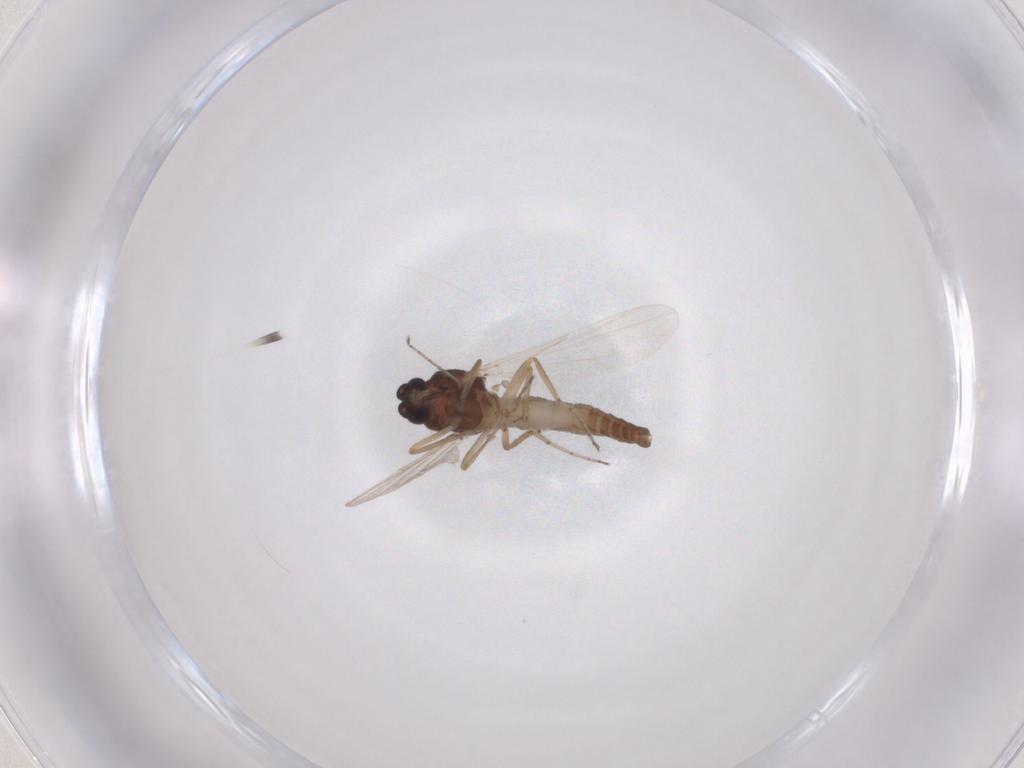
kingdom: Animalia
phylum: Arthropoda
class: Insecta
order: Diptera
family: Ceratopogonidae
